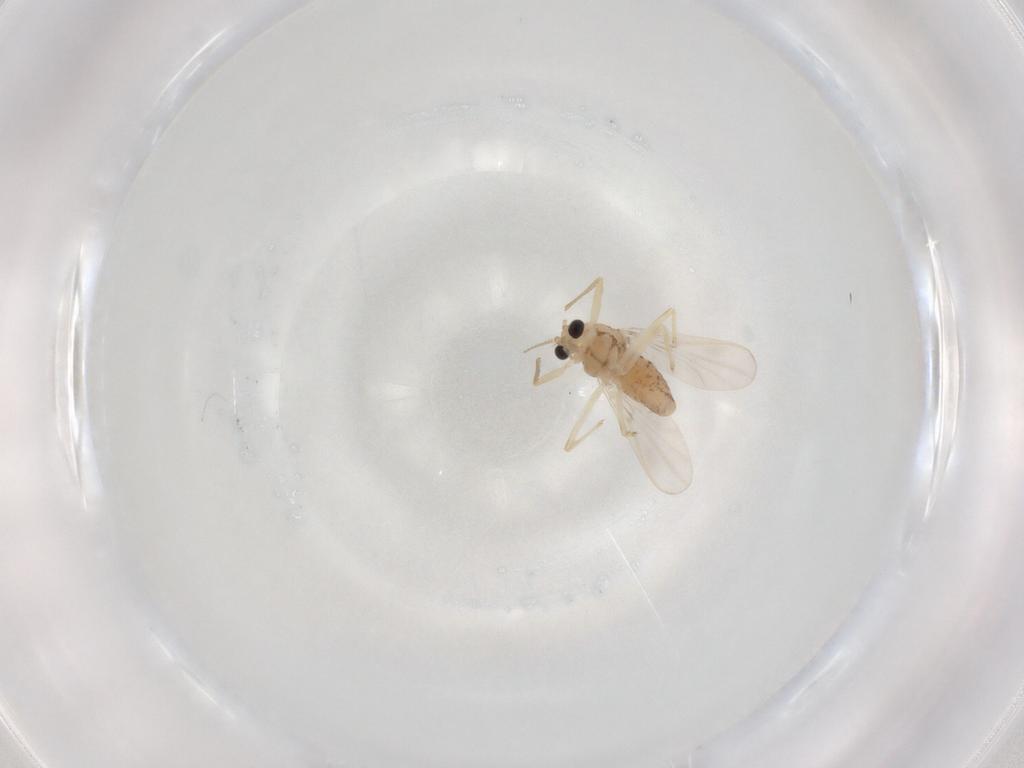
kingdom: Animalia
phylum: Arthropoda
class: Insecta
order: Diptera
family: Chironomidae
